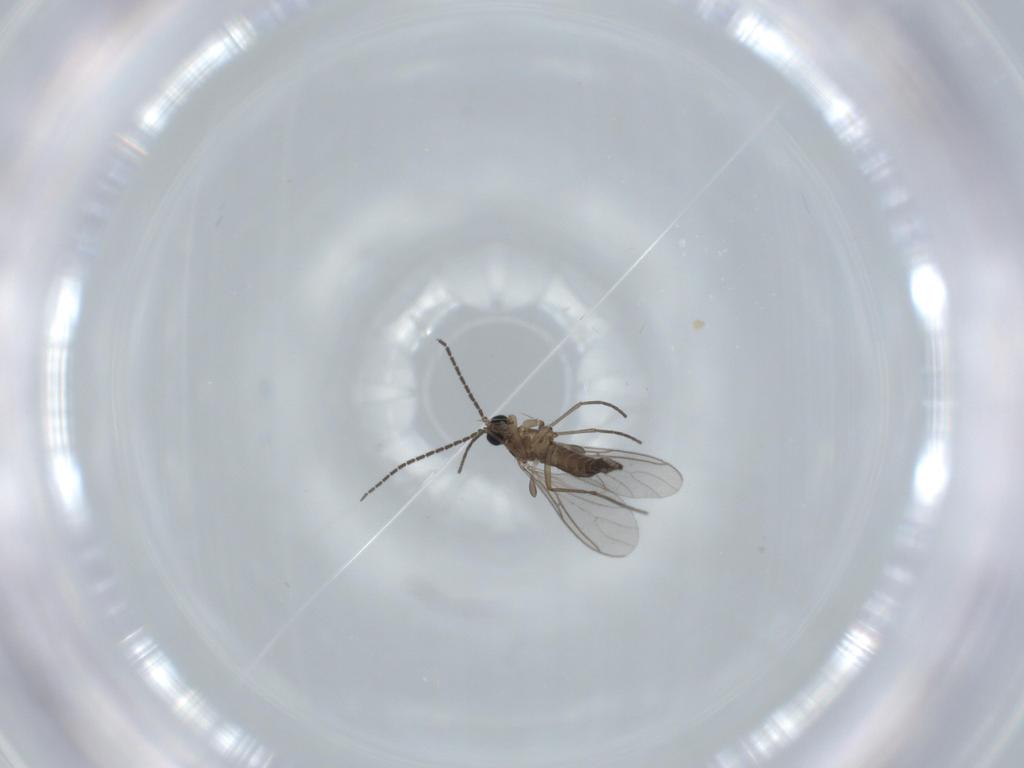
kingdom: Animalia
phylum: Arthropoda
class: Insecta
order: Diptera
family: Sciaridae
